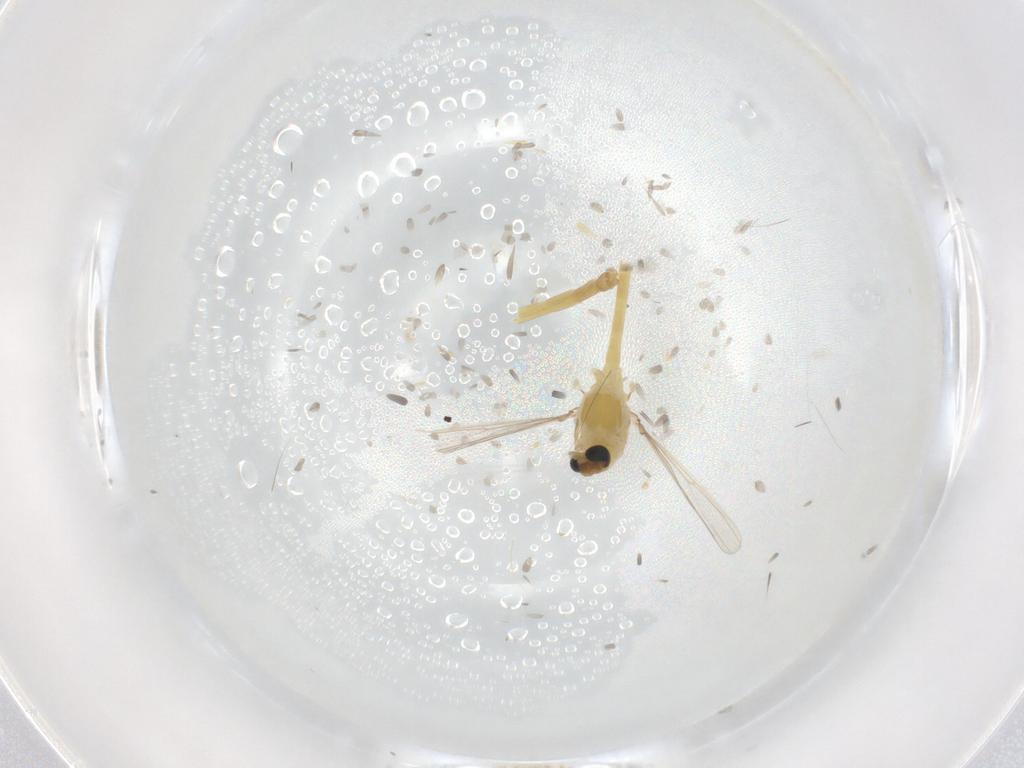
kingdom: Animalia
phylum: Arthropoda
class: Insecta
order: Diptera
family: Chironomidae
